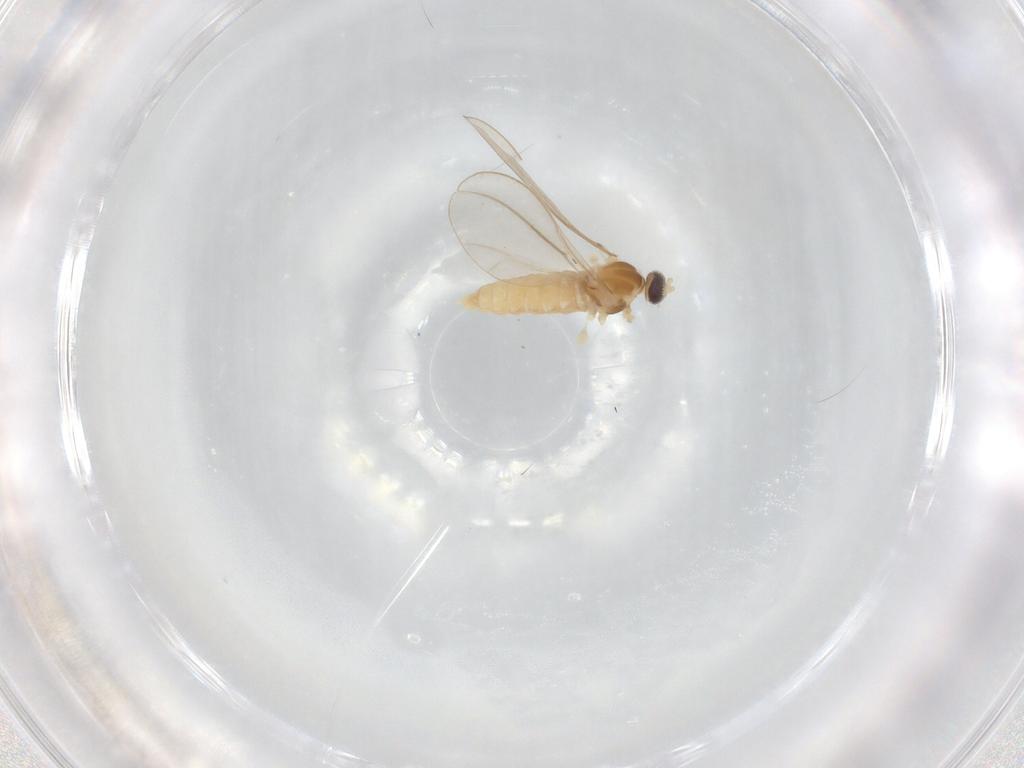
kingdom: Animalia
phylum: Arthropoda
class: Insecta
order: Diptera
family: Cecidomyiidae
